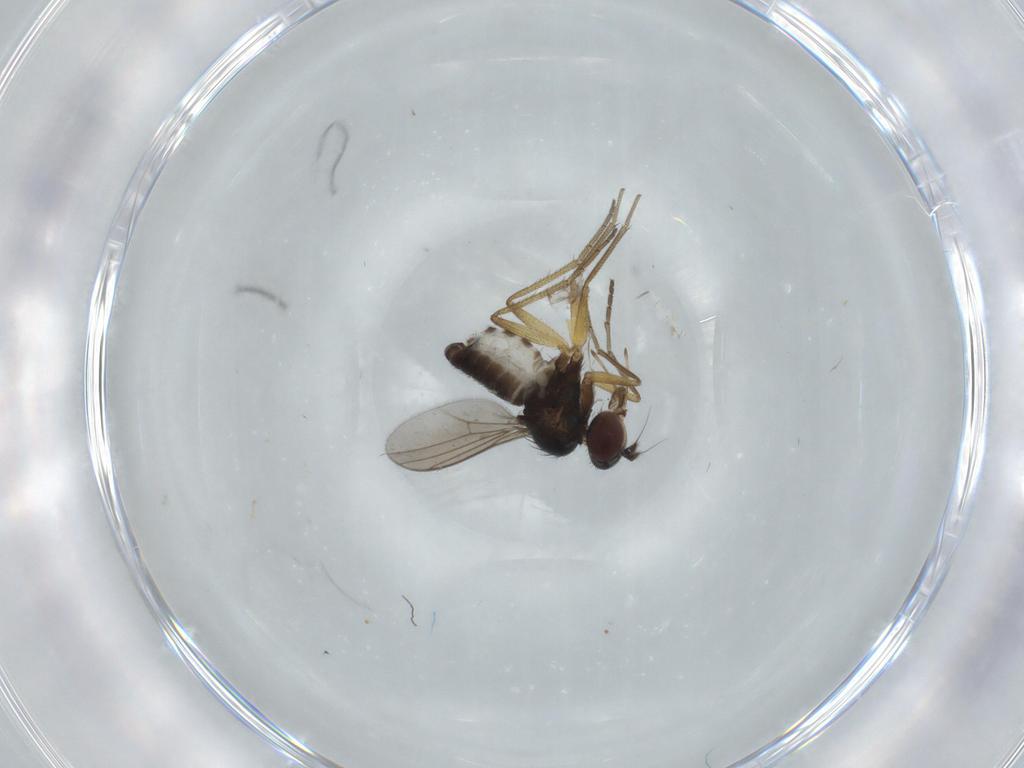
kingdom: Animalia
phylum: Arthropoda
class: Insecta
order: Diptera
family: Dolichopodidae
